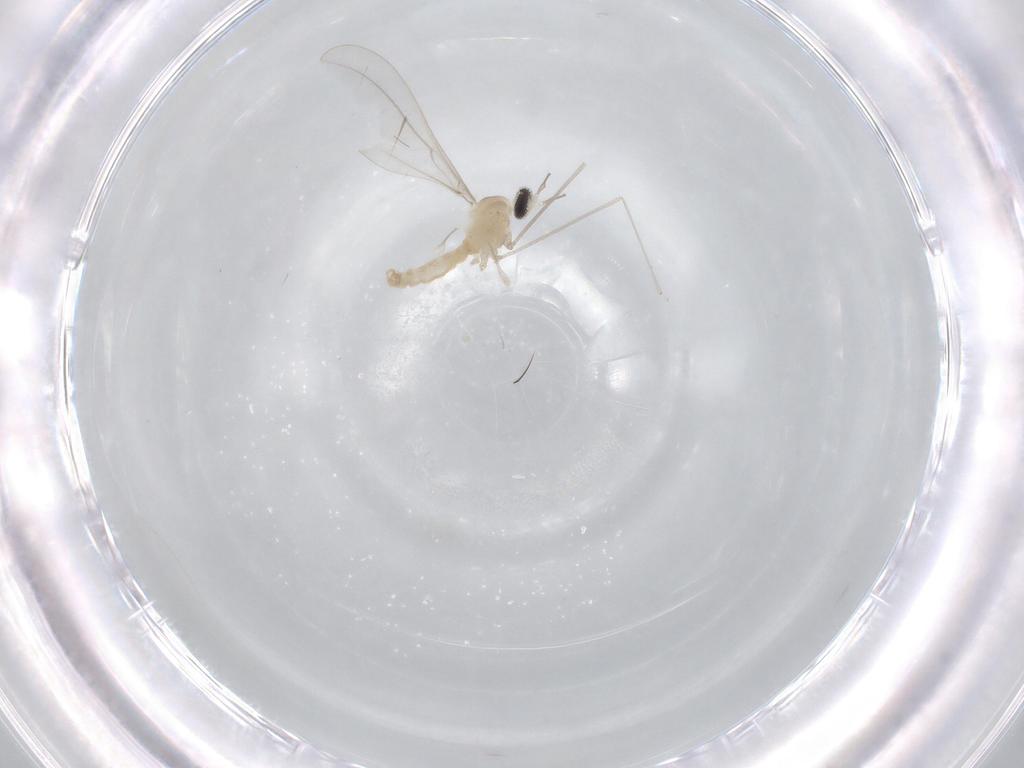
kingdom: Animalia
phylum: Arthropoda
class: Insecta
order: Diptera
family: Cecidomyiidae
